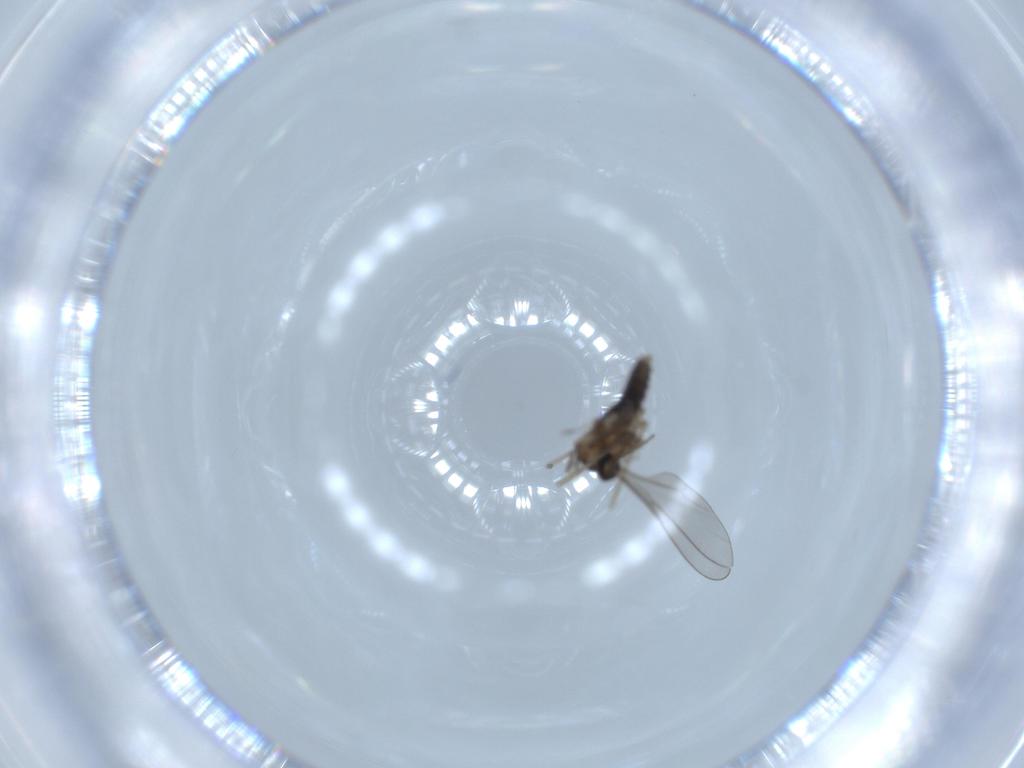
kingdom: Animalia
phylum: Arthropoda
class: Insecta
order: Diptera
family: Cecidomyiidae
